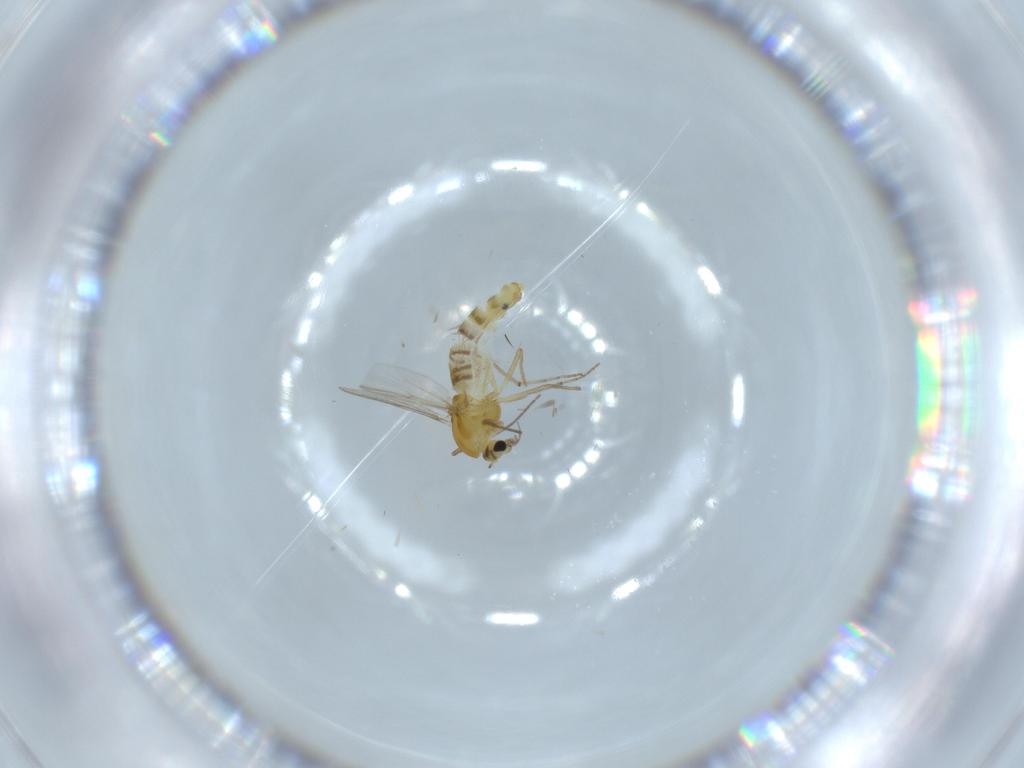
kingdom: Animalia
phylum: Arthropoda
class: Insecta
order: Diptera
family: Chironomidae
